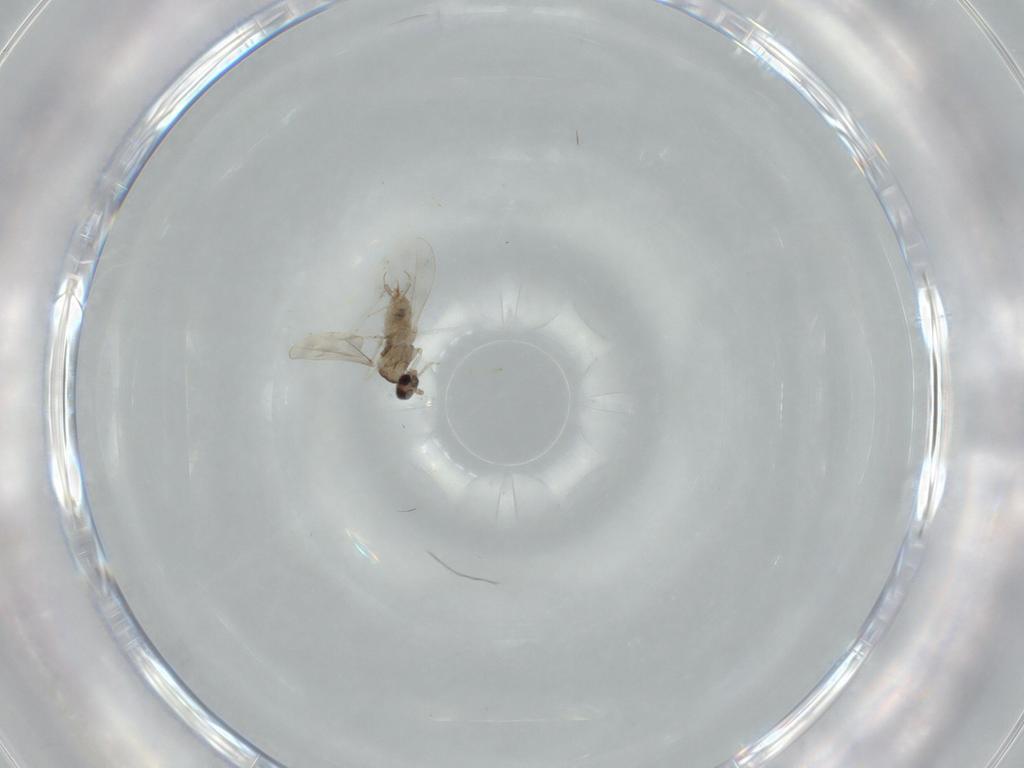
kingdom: Animalia
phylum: Arthropoda
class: Insecta
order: Diptera
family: Cecidomyiidae
